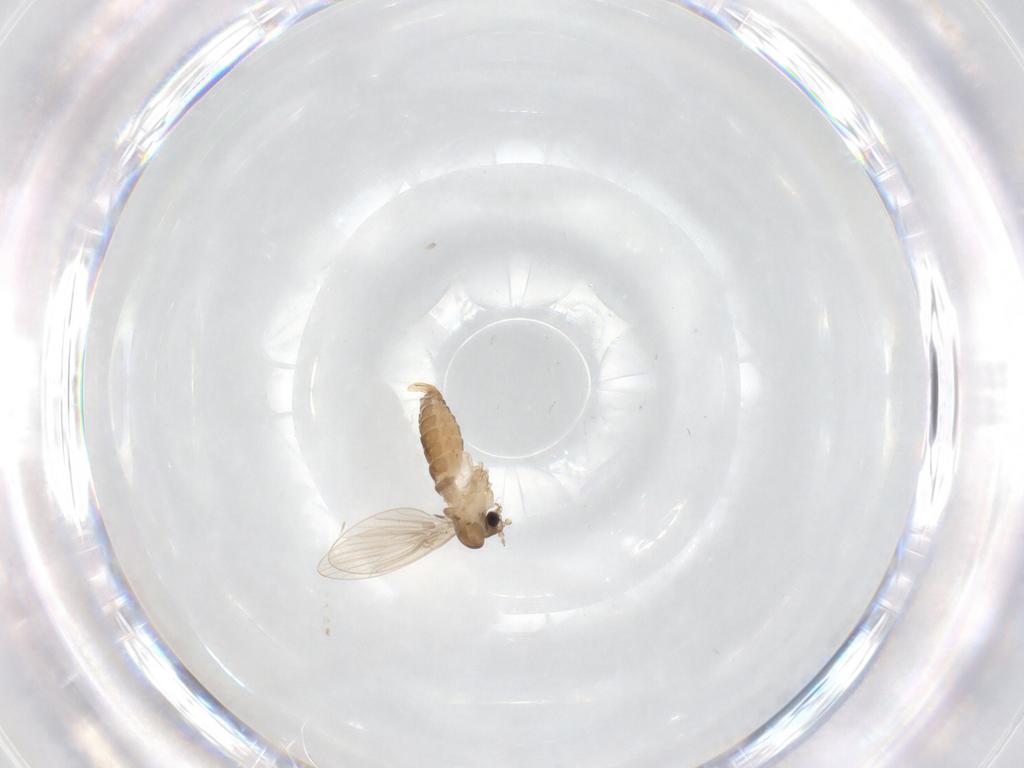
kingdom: Animalia
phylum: Arthropoda
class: Insecta
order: Diptera
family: Psychodidae
